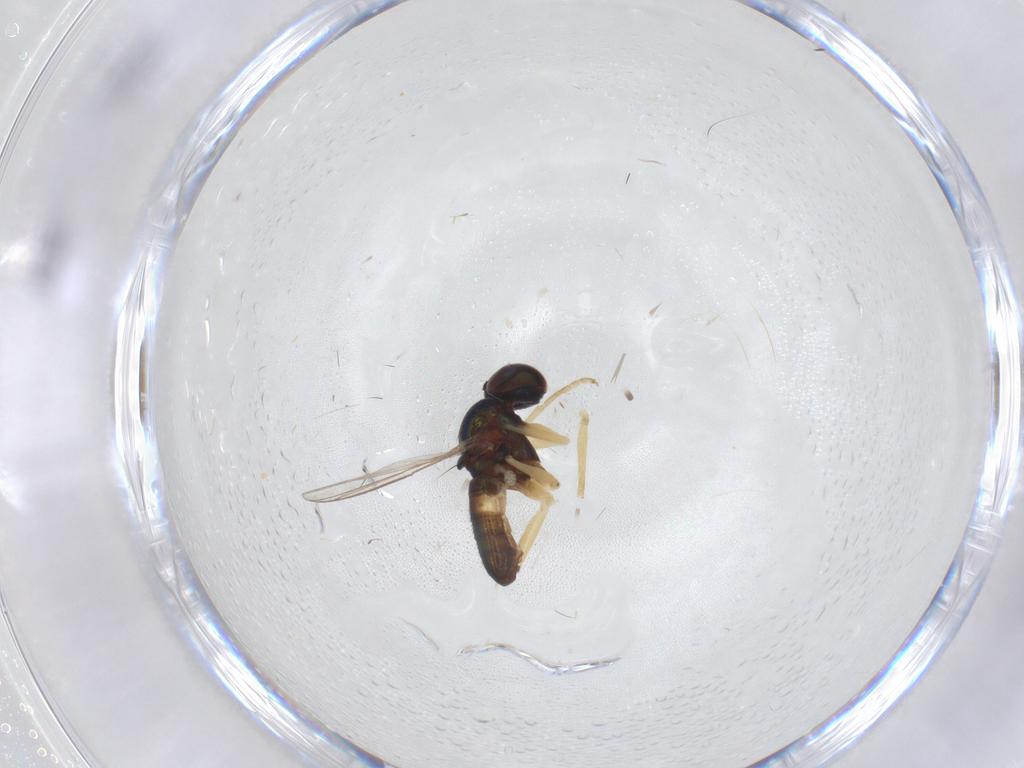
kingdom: Animalia
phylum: Arthropoda
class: Insecta
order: Diptera
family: Dolichopodidae
